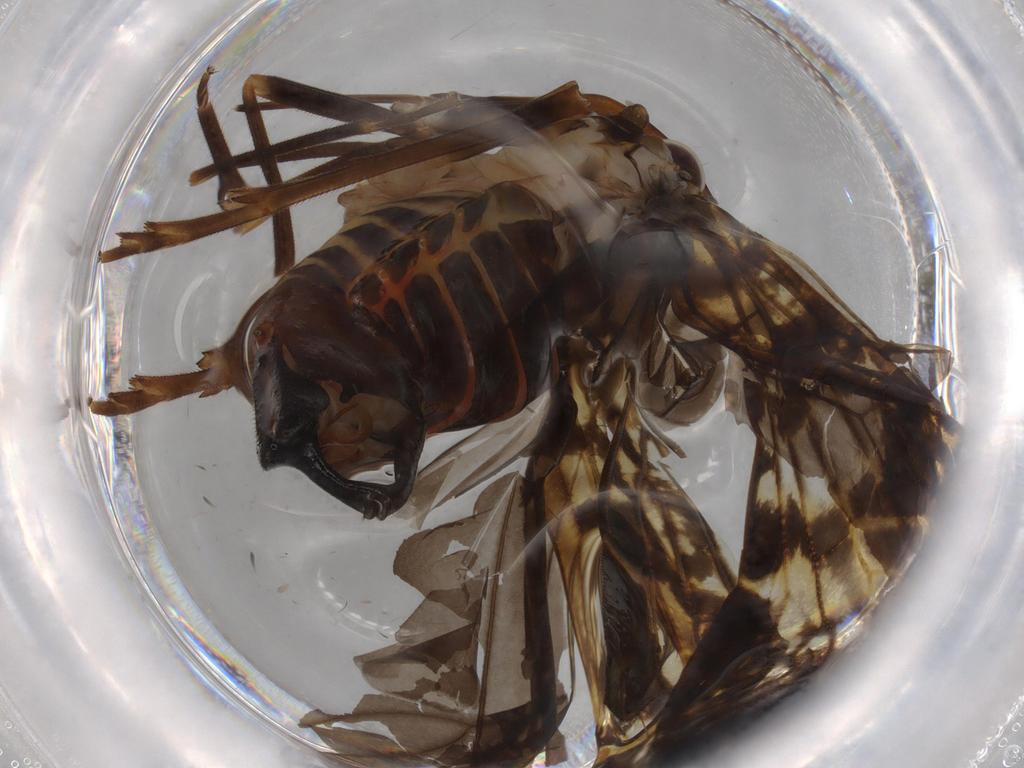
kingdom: Animalia
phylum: Arthropoda
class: Insecta
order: Hemiptera
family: Cixiidae
